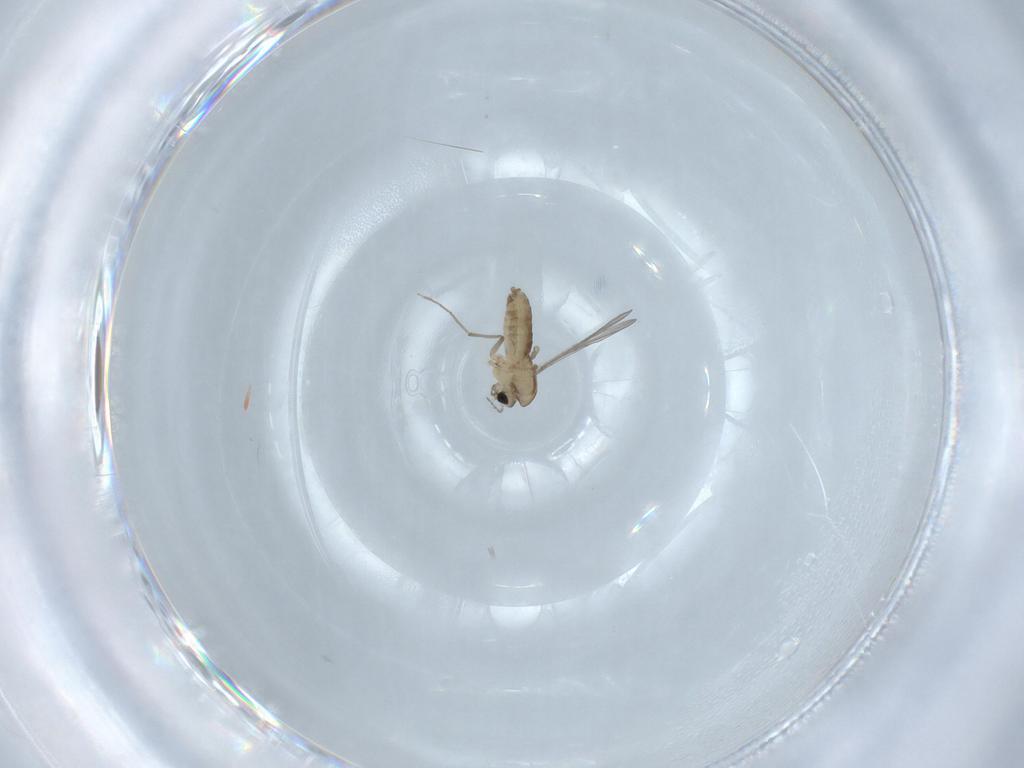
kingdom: Animalia
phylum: Arthropoda
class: Insecta
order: Diptera
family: Chironomidae
